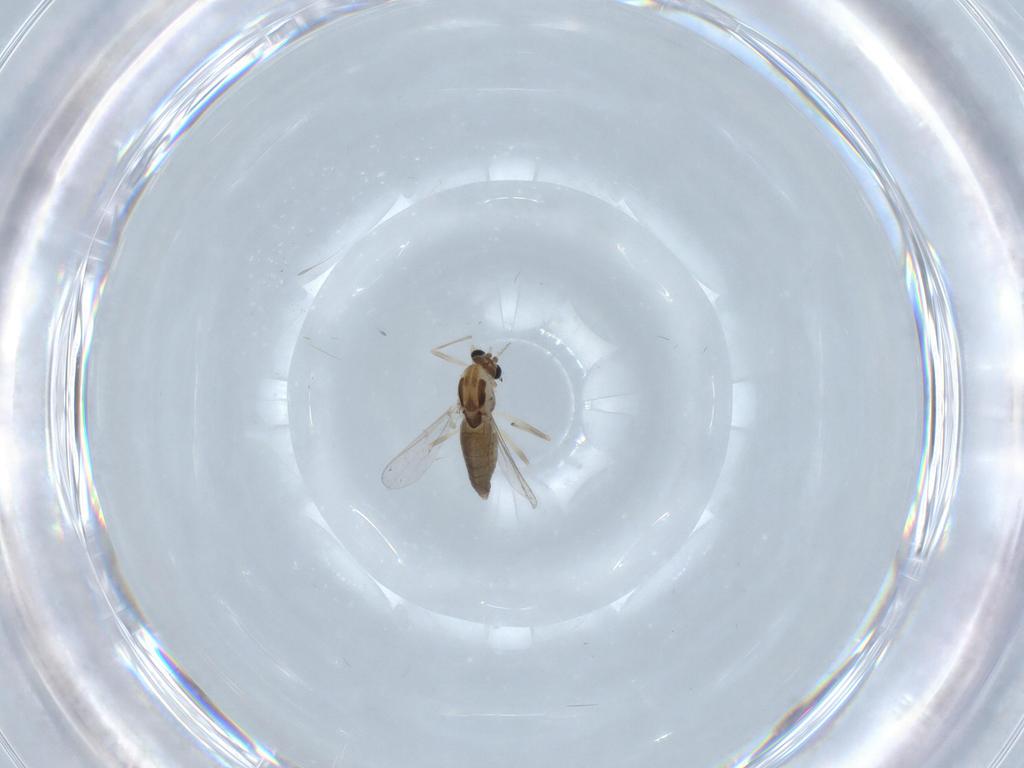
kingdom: Animalia
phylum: Arthropoda
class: Insecta
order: Diptera
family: Chironomidae
